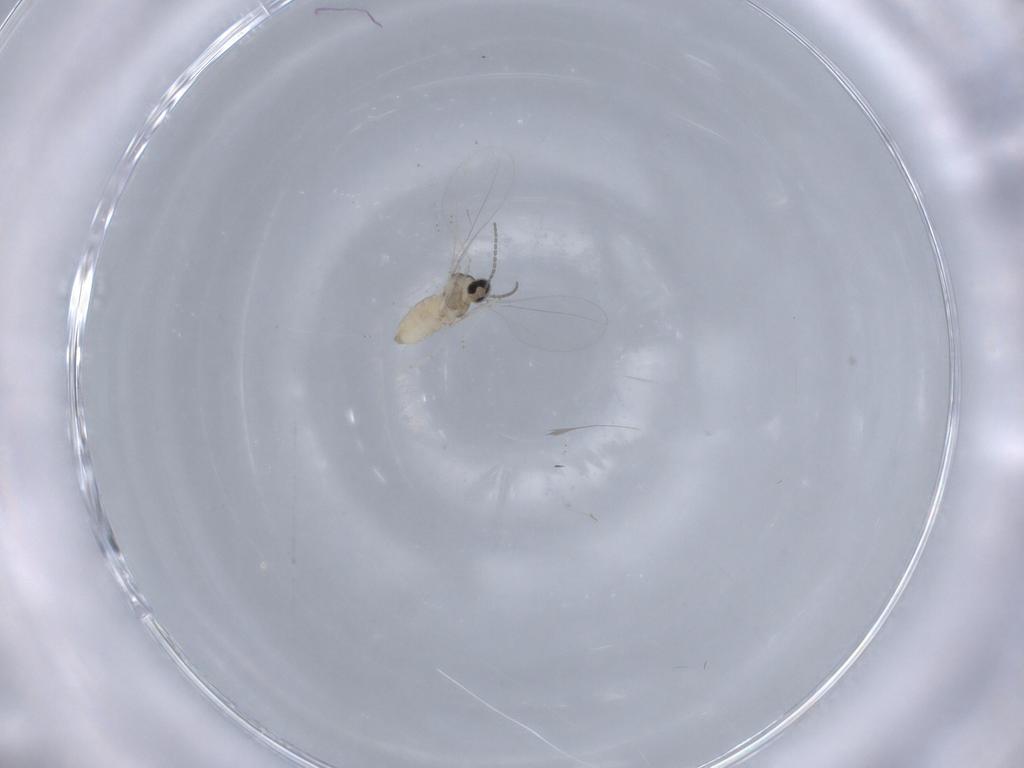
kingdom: Animalia
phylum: Arthropoda
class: Insecta
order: Diptera
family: Cecidomyiidae
